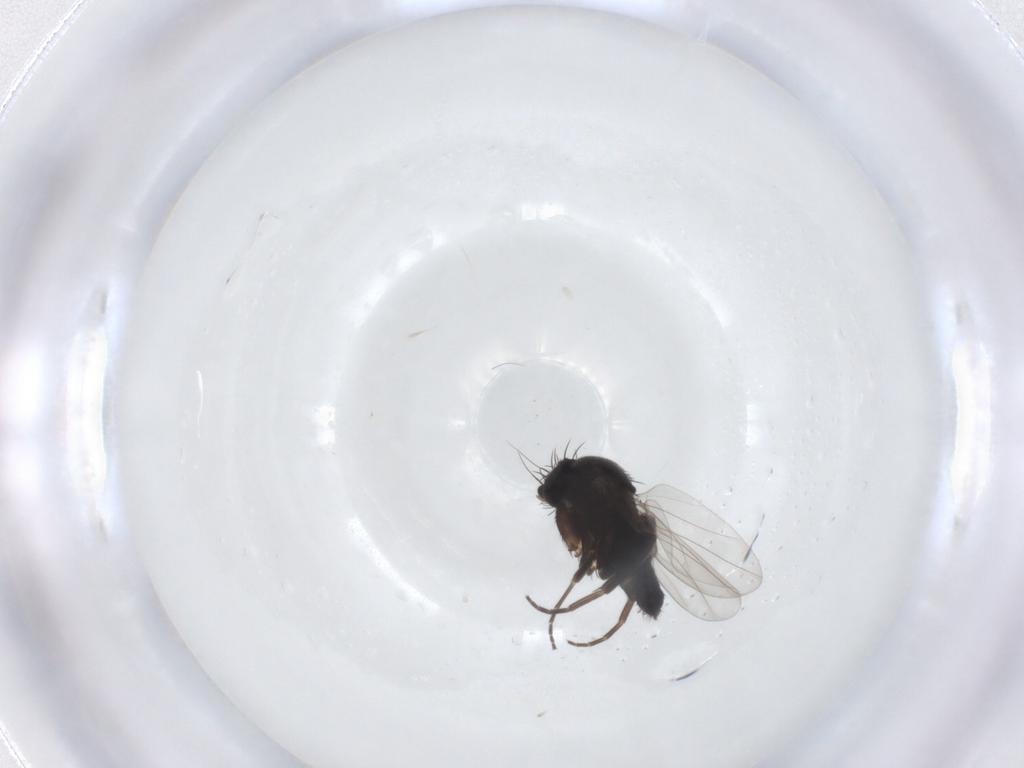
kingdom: Animalia
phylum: Arthropoda
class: Insecta
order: Diptera
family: Phoridae
